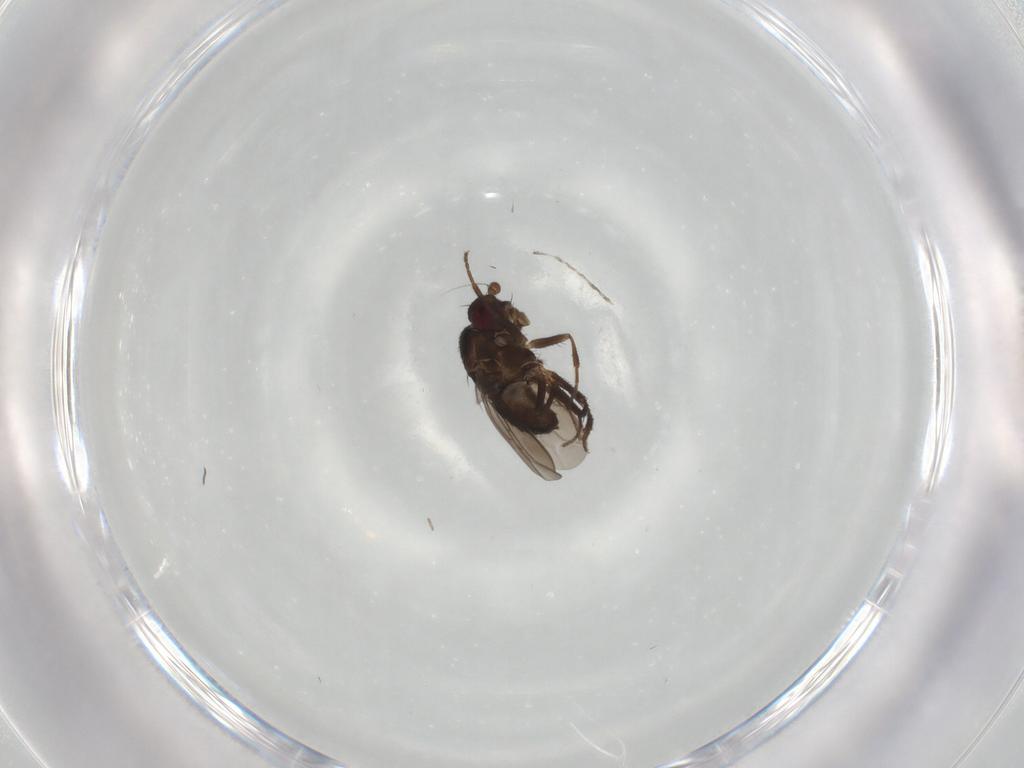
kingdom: Animalia
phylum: Arthropoda
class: Insecta
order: Diptera
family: Sphaeroceridae
